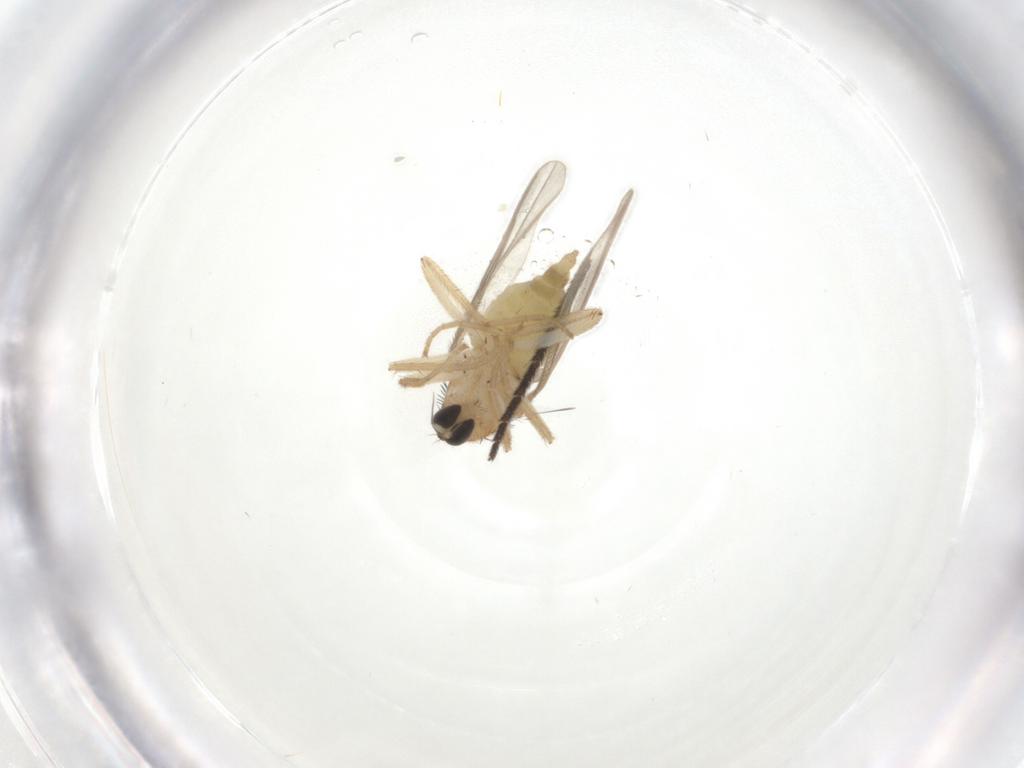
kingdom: Animalia
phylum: Arthropoda
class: Insecta
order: Diptera
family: Hybotidae
